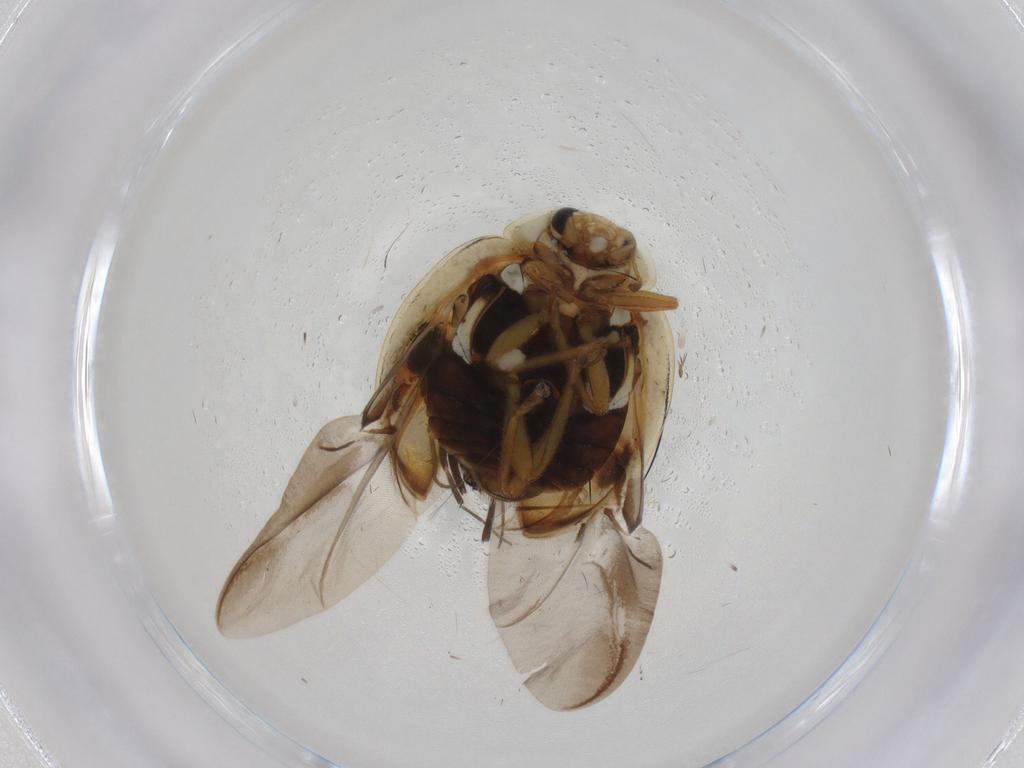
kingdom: Animalia
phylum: Arthropoda
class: Insecta
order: Coleoptera
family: Coccinellidae
